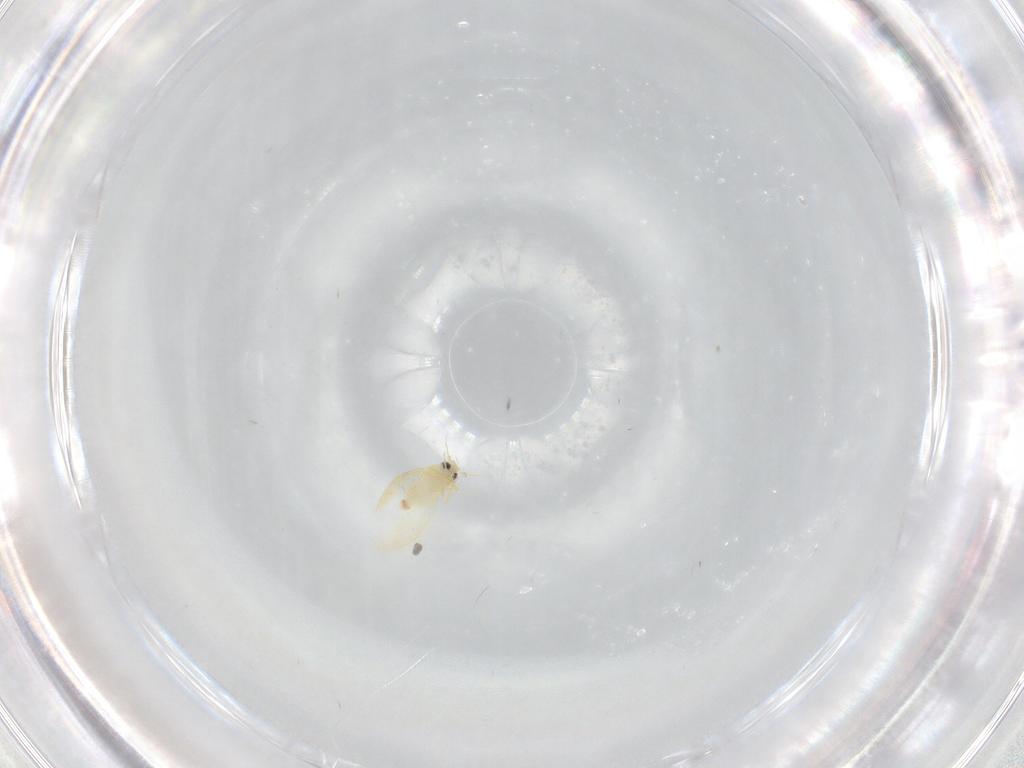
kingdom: Animalia
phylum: Arthropoda
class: Insecta
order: Hemiptera
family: Aleyrodidae
